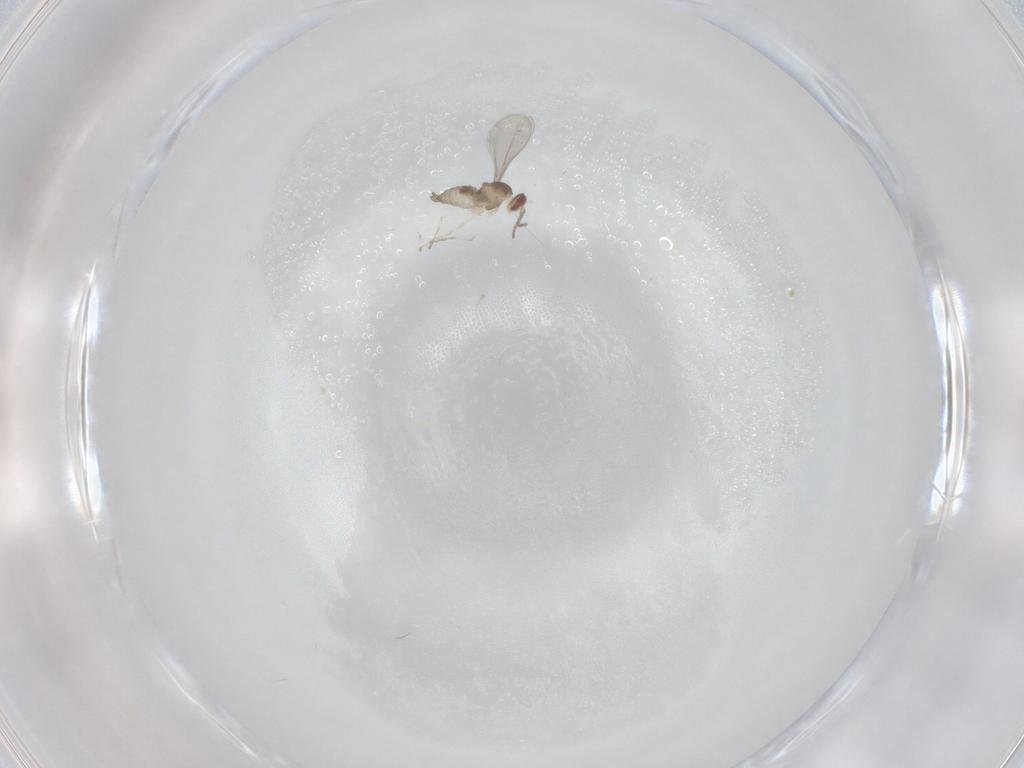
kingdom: Animalia
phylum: Arthropoda
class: Insecta
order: Diptera
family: Cecidomyiidae
